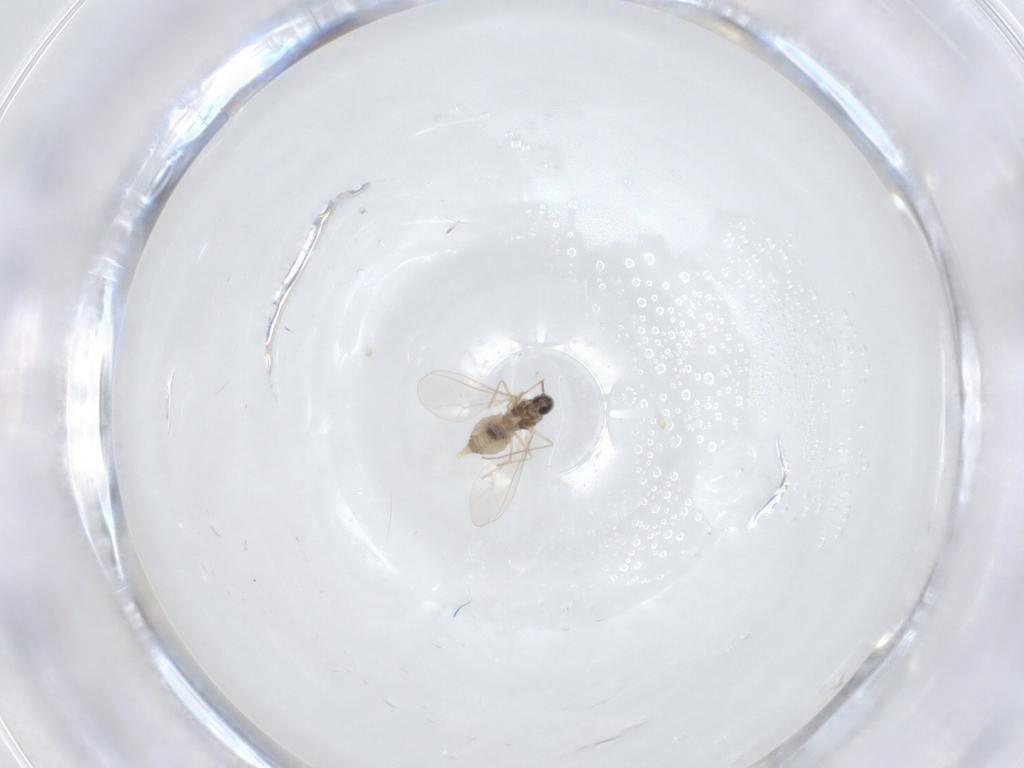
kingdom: Animalia
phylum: Arthropoda
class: Insecta
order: Diptera
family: Cecidomyiidae
